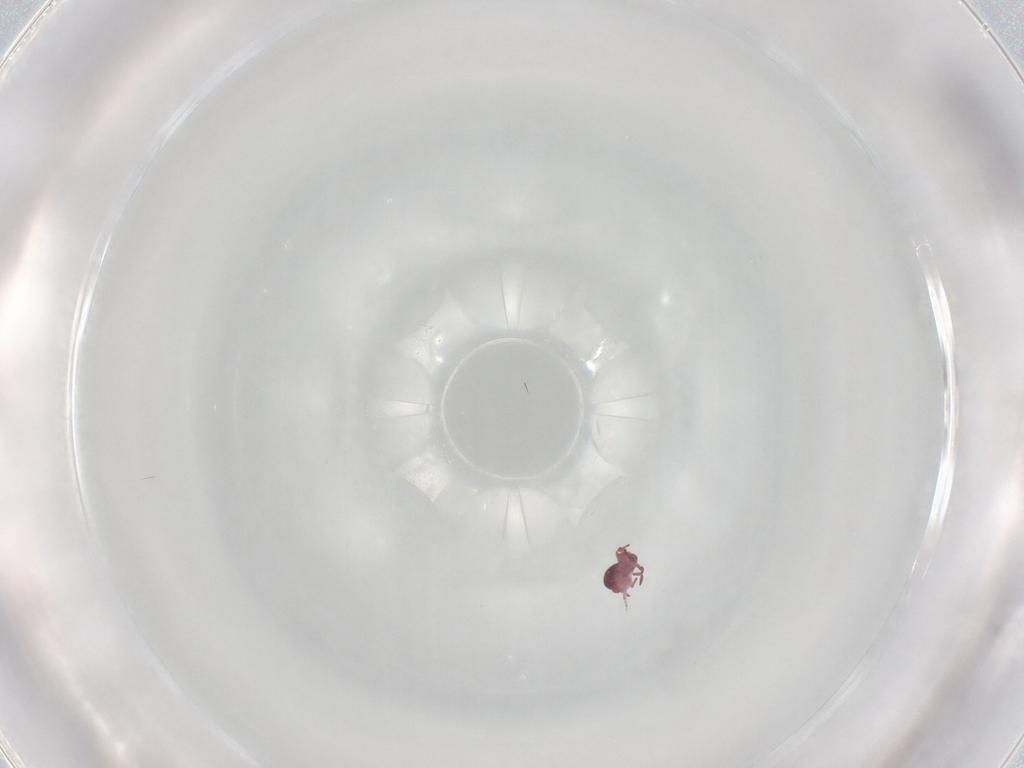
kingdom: Animalia
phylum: Arthropoda
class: Collembola
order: Symphypleona
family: Sminthurididae
